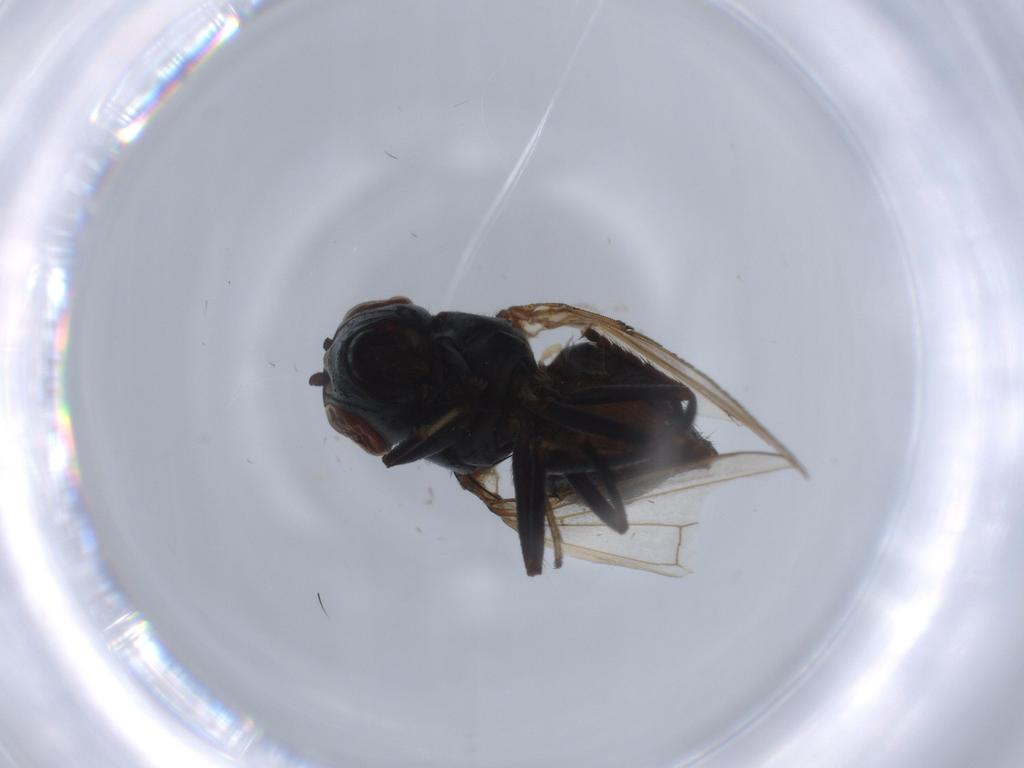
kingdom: Animalia
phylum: Arthropoda
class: Insecta
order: Diptera
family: Ephydridae
